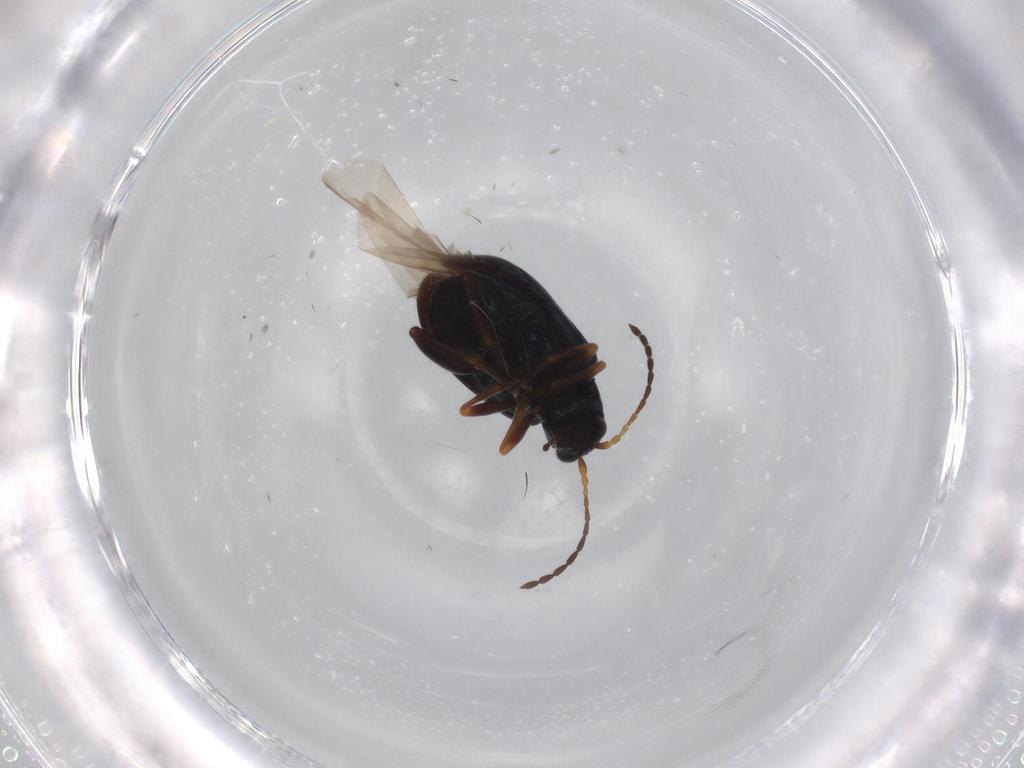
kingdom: Animalia
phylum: Arthropoda
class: Insecta
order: Coleoptera
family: Chrysomelidae
